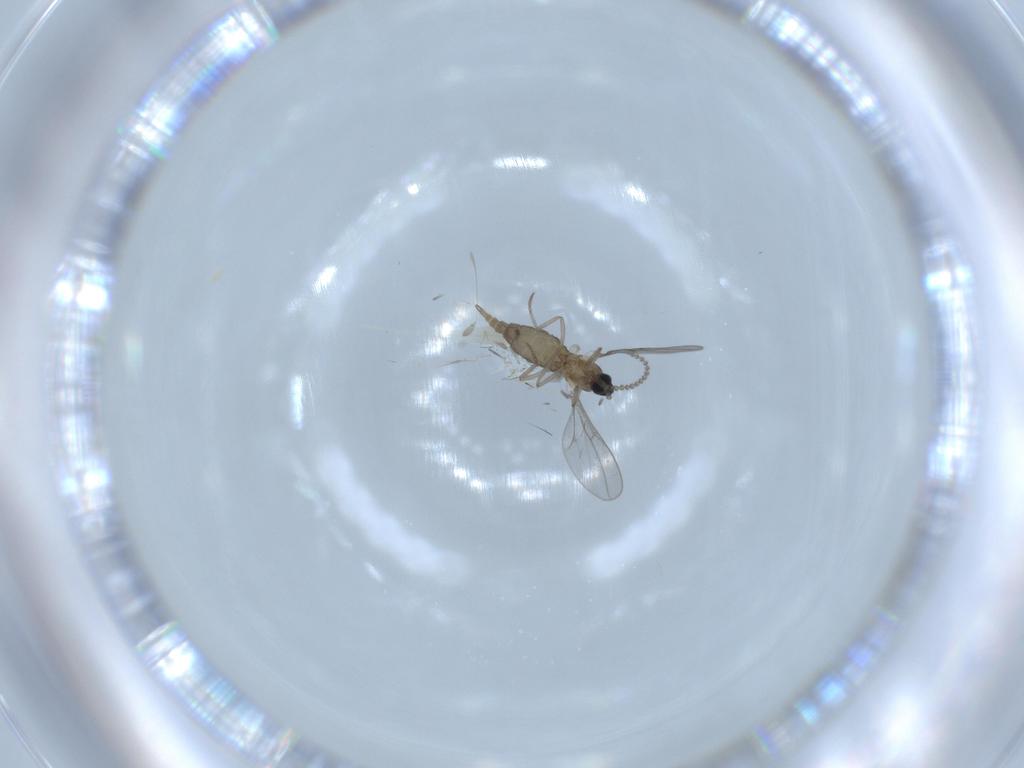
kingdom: Animalia
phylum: Arthropoda
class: Insecta
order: Diptera
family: Cecidomyiidae
